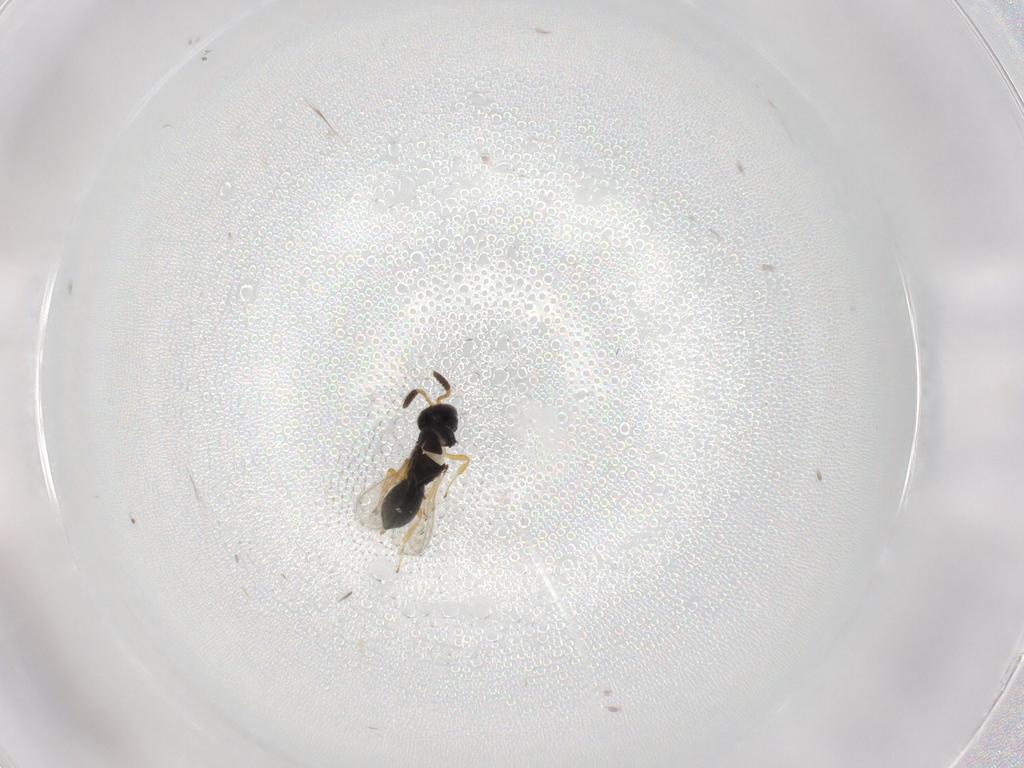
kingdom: Animalia
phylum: Arthropoda
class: Insecta
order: Hymenoptera
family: Scelionidae
